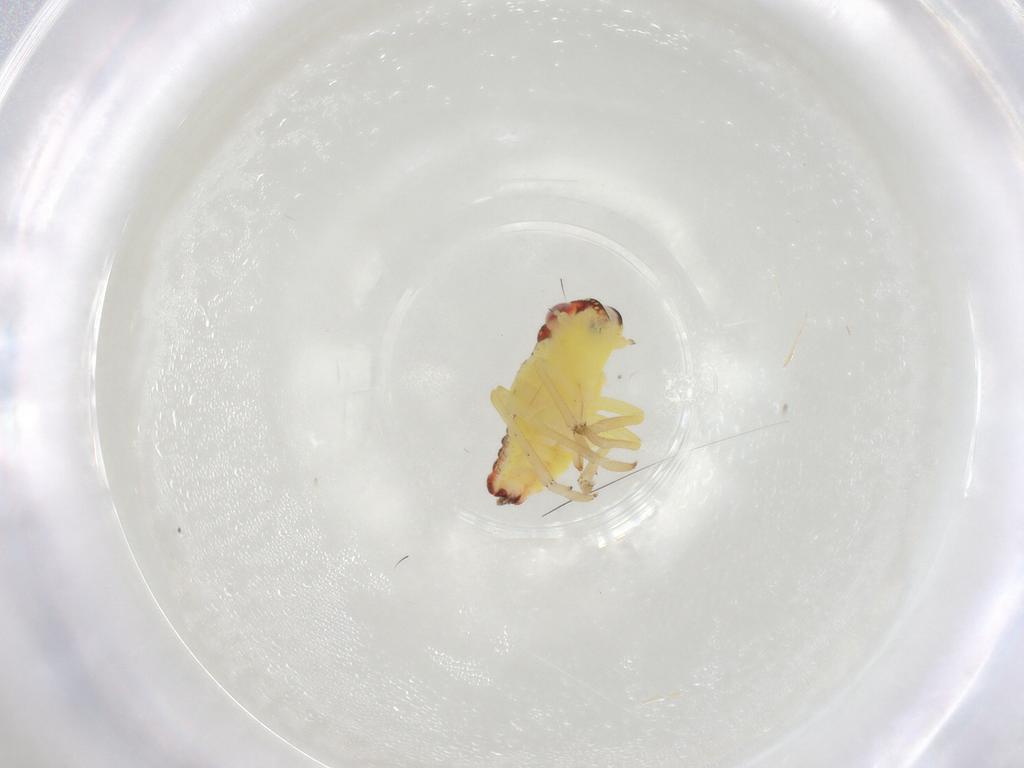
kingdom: Animalia
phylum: Arthropoda
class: Insecta
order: Hemiptera
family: Cicadellidae
